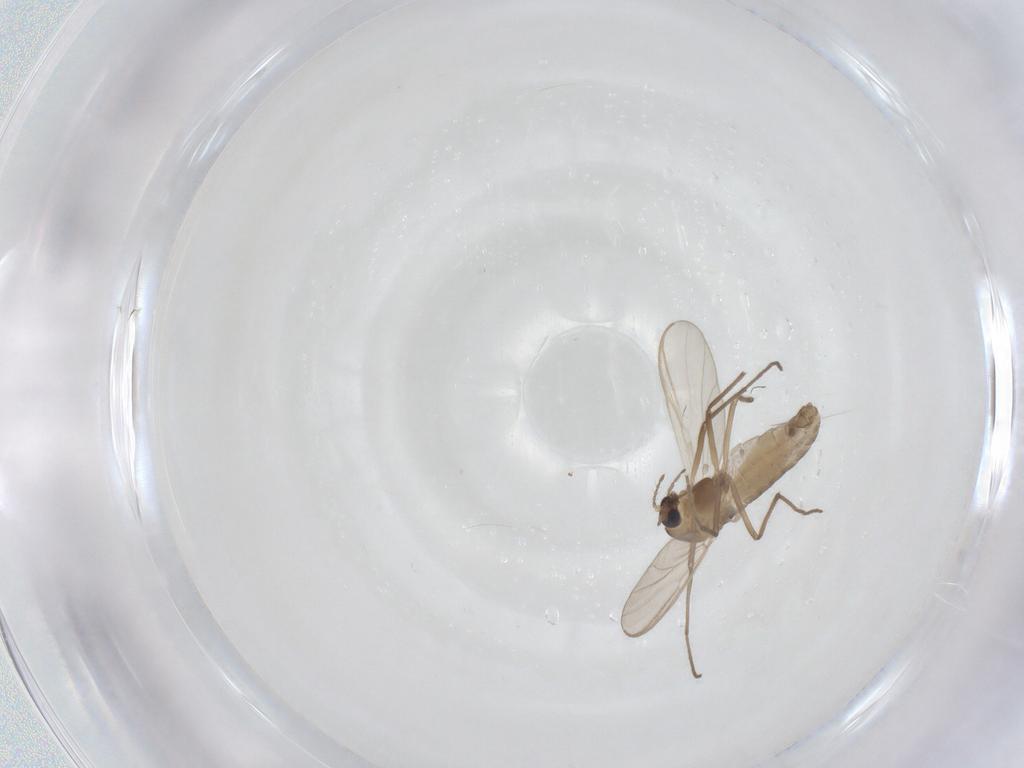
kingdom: Animalia
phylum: Arthropoda
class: Insecta
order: Diptera
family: Chironomidae
